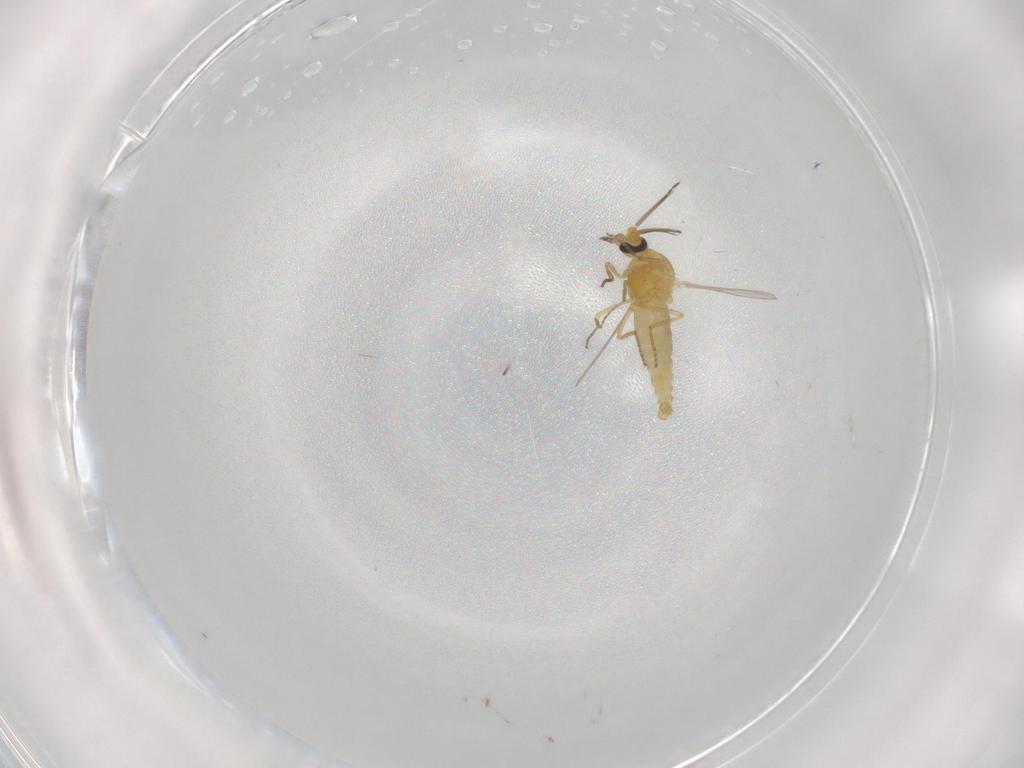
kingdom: Animalia
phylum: Arthropoda
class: Insecta
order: Diptera
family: Ceratopogonidae
